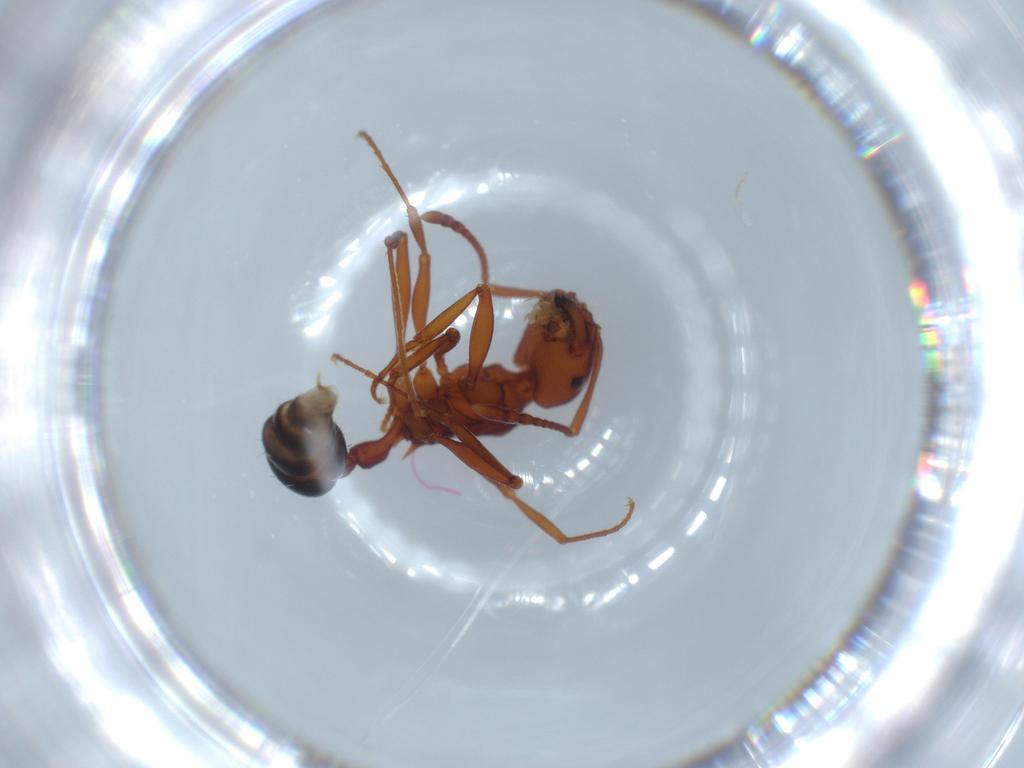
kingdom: Animalia
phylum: Arthropoda
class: Insecta
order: Hymenoptera
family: Formicidae
